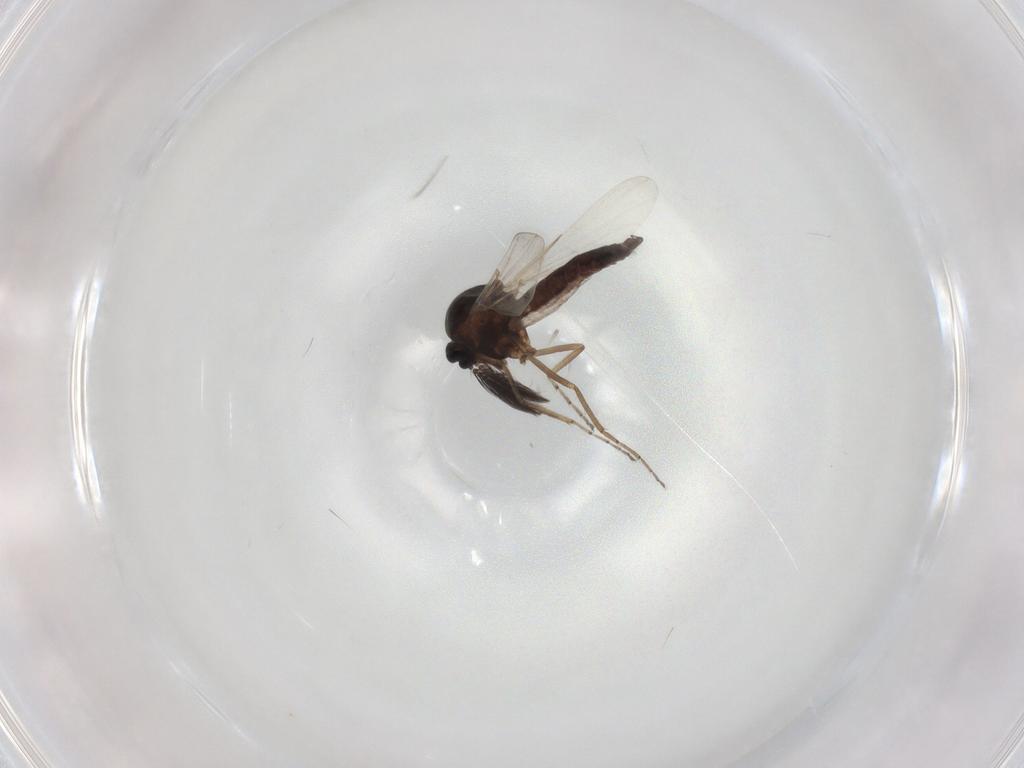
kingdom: Animalia
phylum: Arthropoda
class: Insecta
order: Diptera
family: Ceratopogonidae
